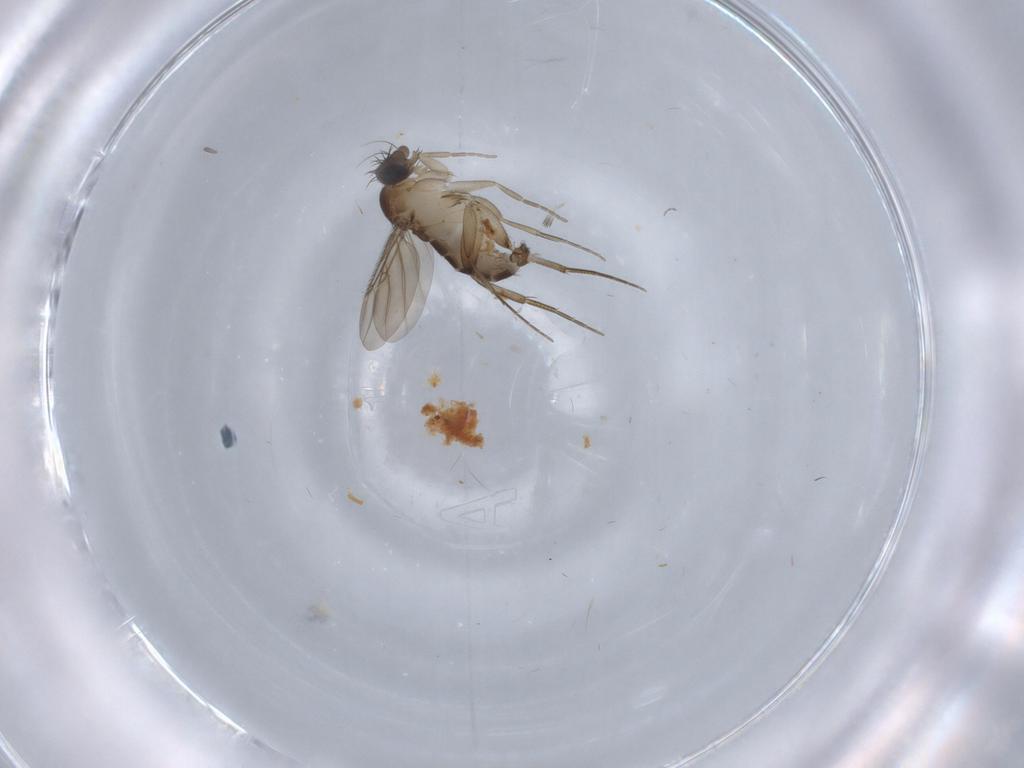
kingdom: Animalia
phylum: Arthropoda
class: Insecta
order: Diptera
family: Phoridae
